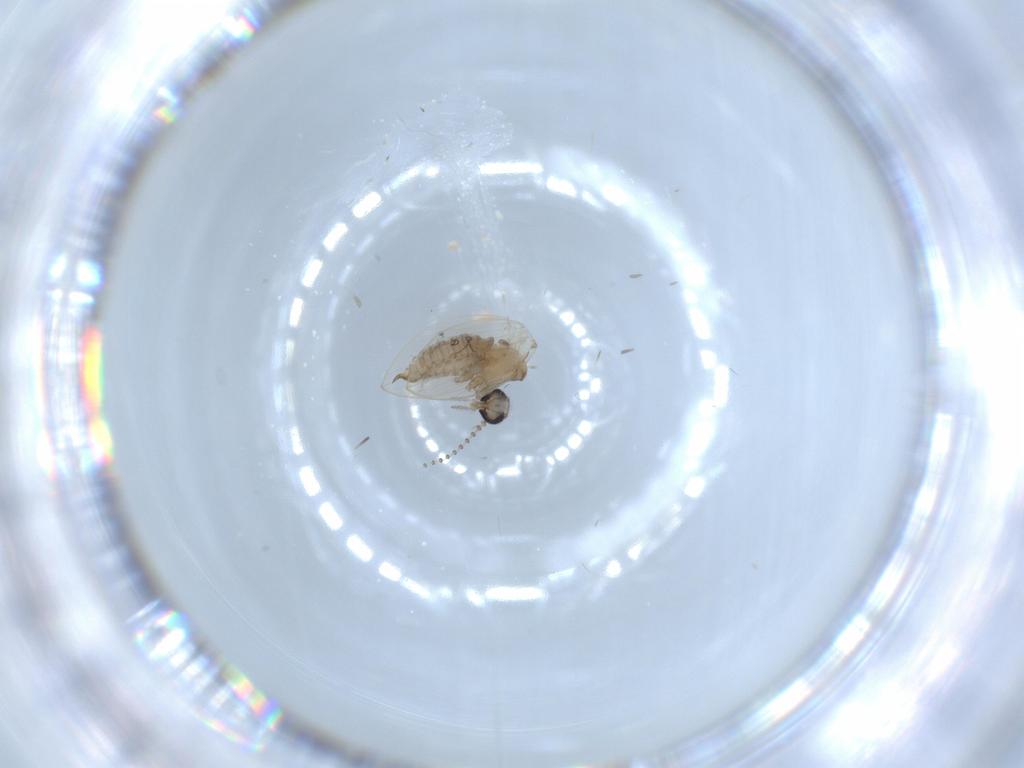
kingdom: Animalia
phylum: Arthropoda
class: Insecta
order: Diptera
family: Psychodidae
